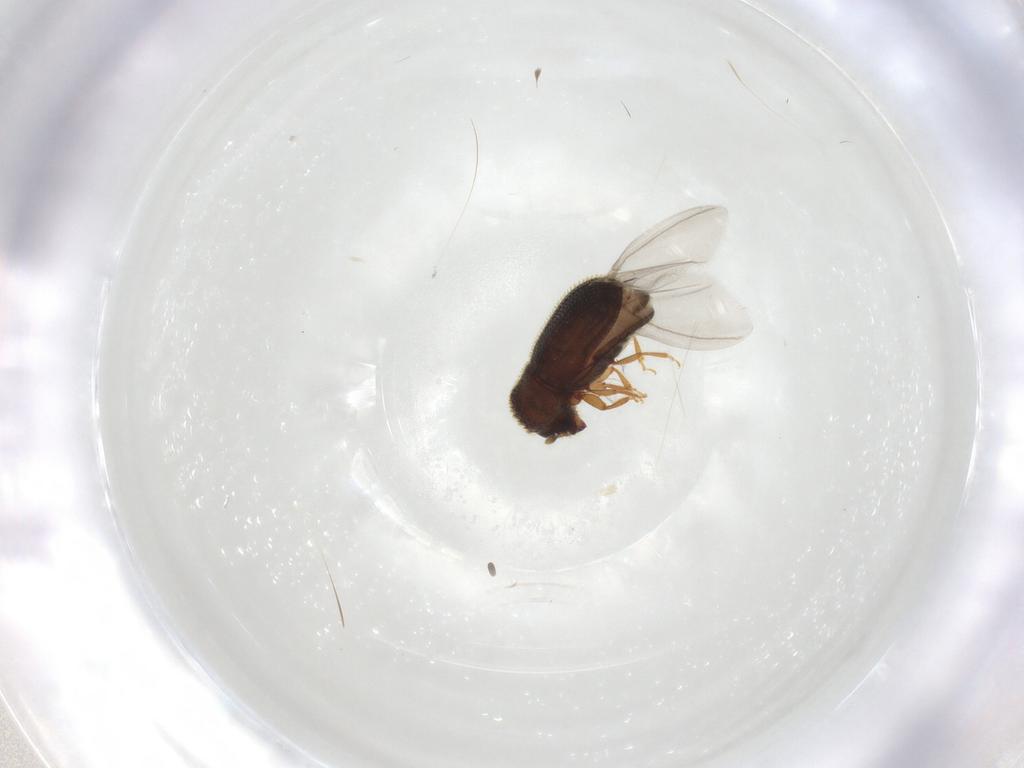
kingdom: Animalia
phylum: Arthropoda
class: Insecta
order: Coleoptera
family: Curculionidae
